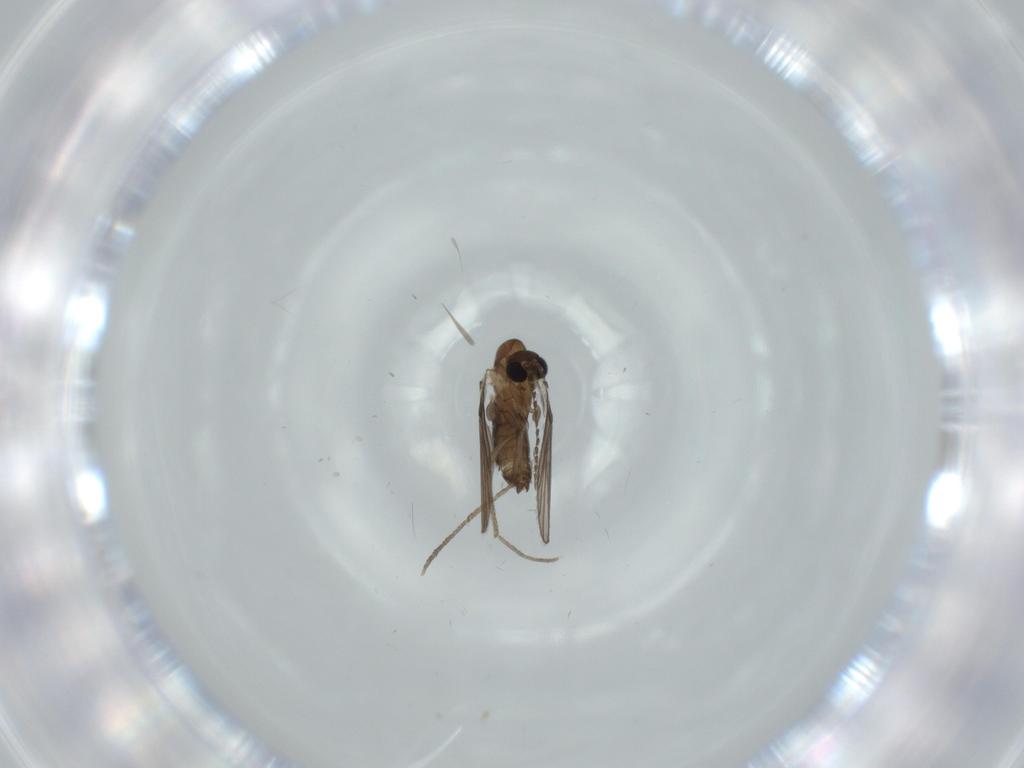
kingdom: Animalia
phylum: Arthropoda
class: Insecta
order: Diptera
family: Psychodidae
